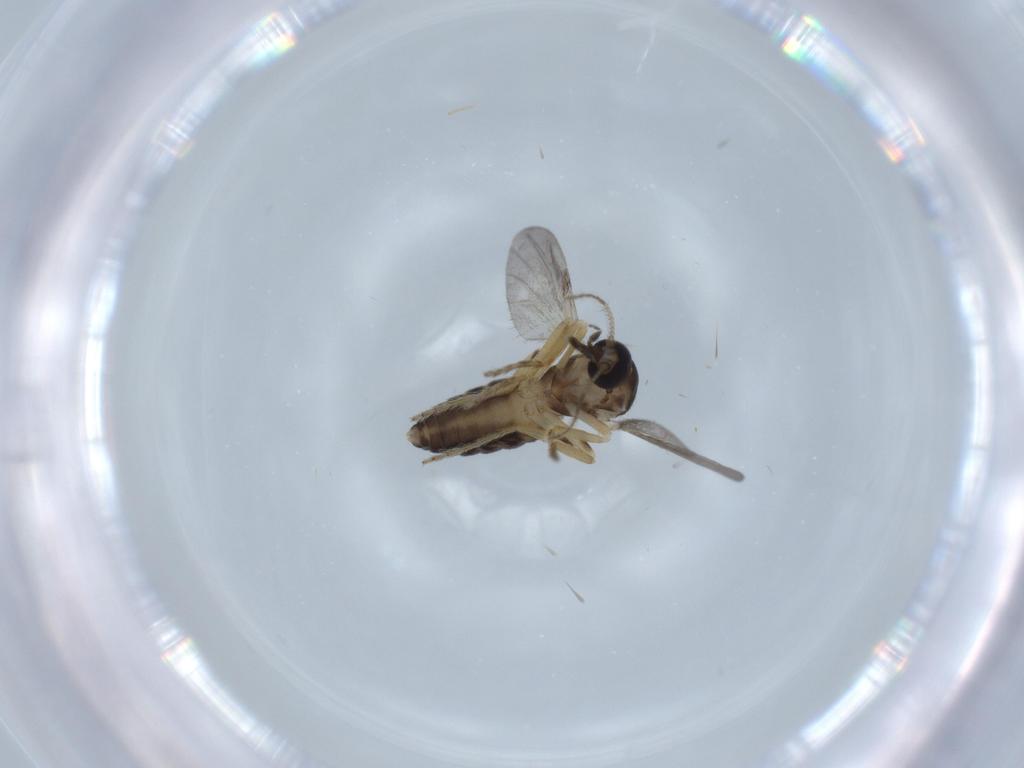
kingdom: Animalia
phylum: Arthropoda
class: Insecta
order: Diptera
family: Ceratopogonidae
